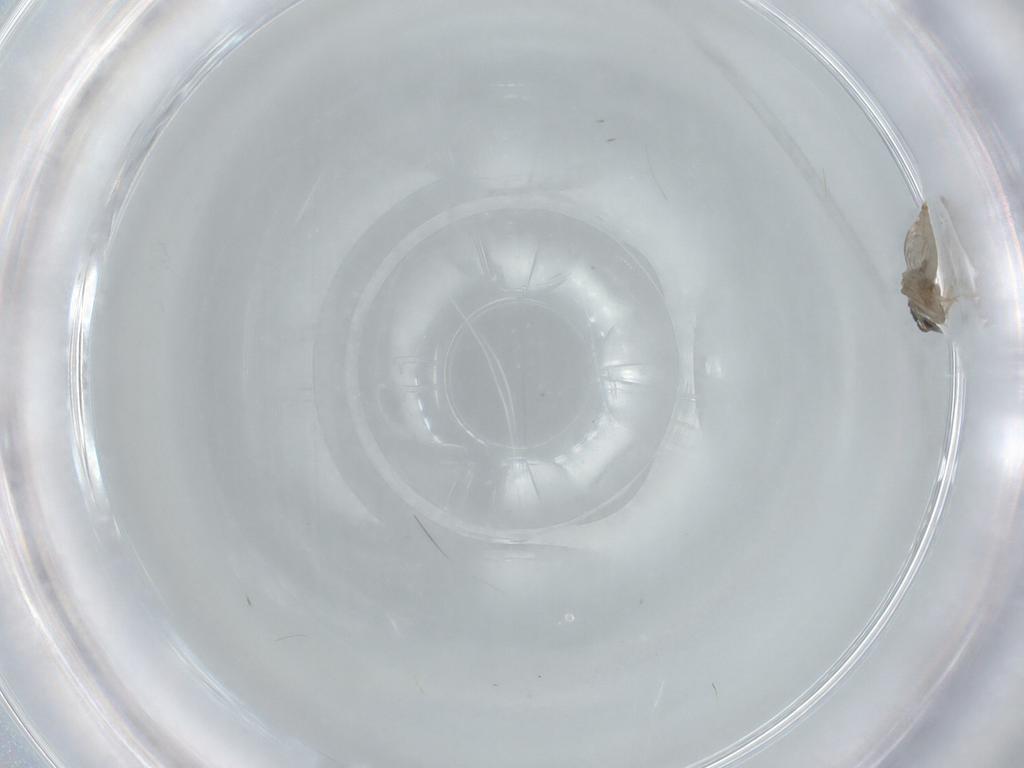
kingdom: Animalia
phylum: Arthropoda
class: Insecta
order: Diptera
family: Cecidomyiidae
